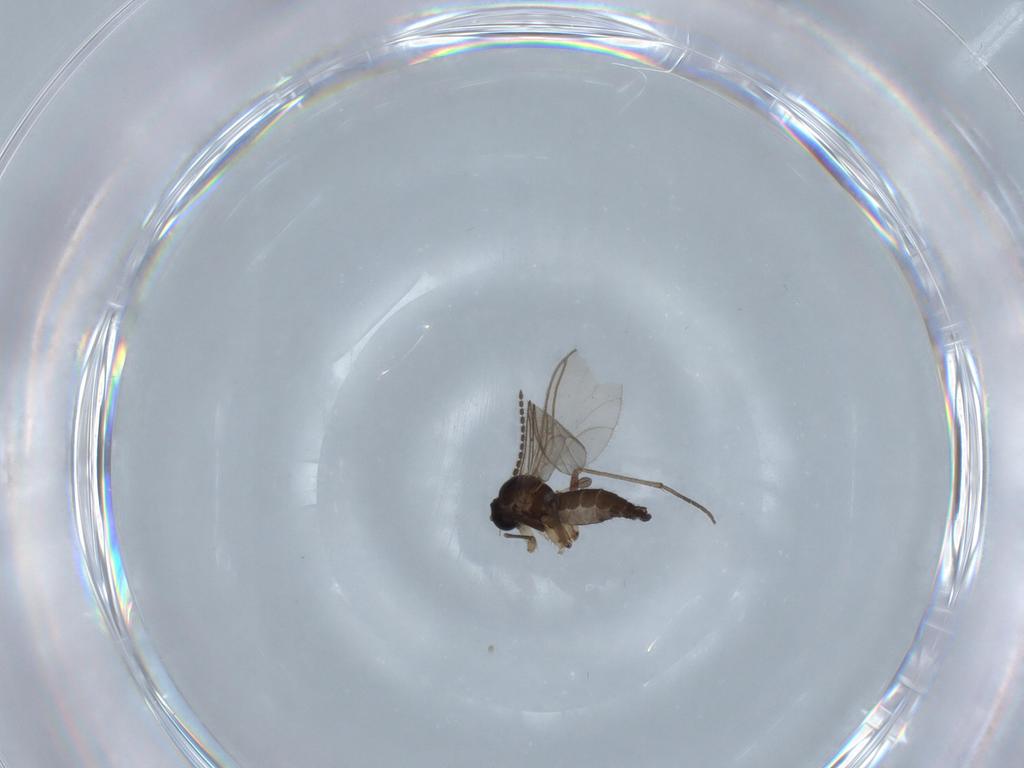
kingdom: Animalia
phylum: Arthropoda
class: Insecta
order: Diptera
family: Sciaridae
